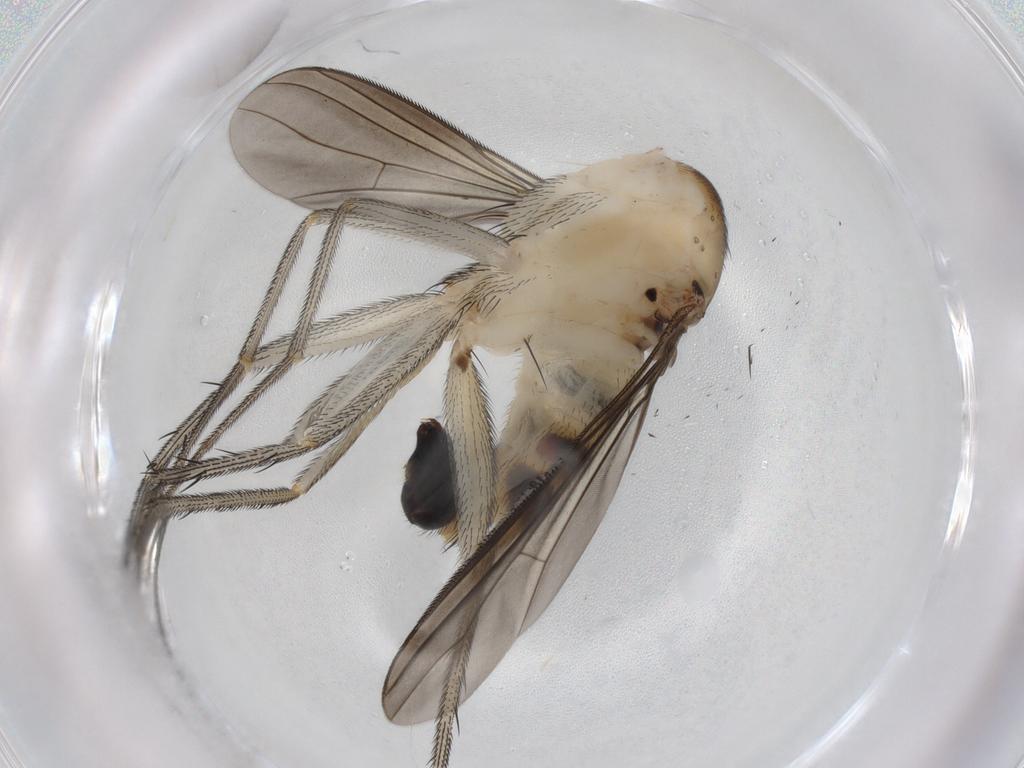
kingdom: Animalia
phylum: Arthropoda
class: Insecta
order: Diptera
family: Dolichopodidae
